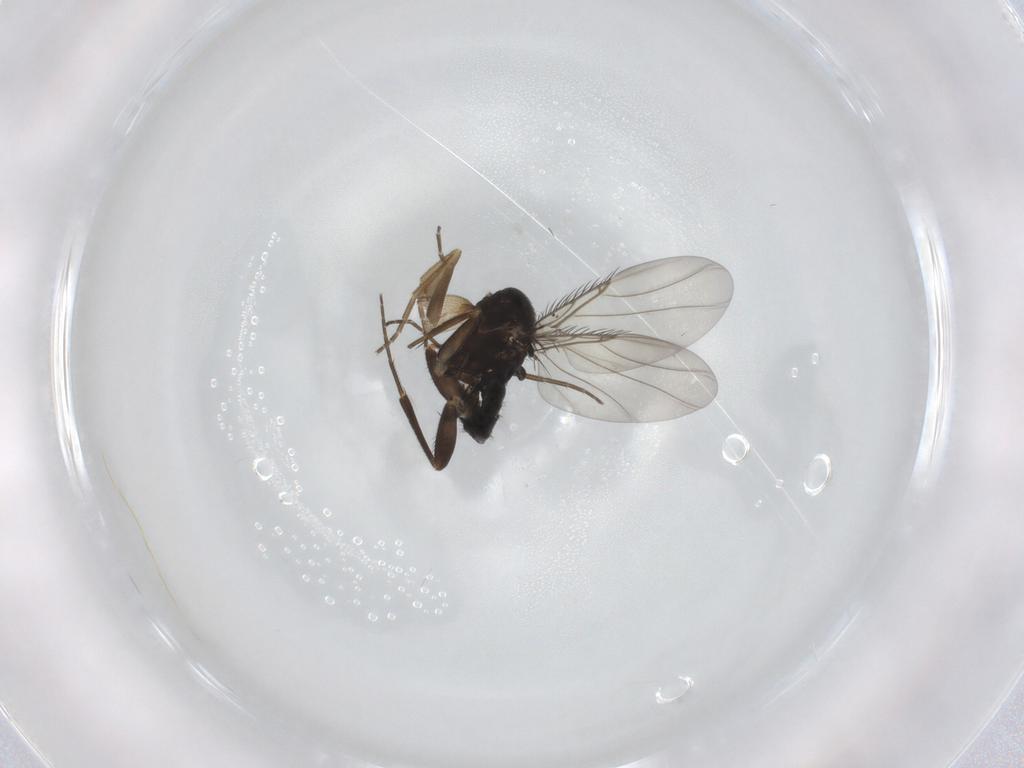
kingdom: Animalia
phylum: Arthropoda
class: Insecta
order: Diptera
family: Phoridae
